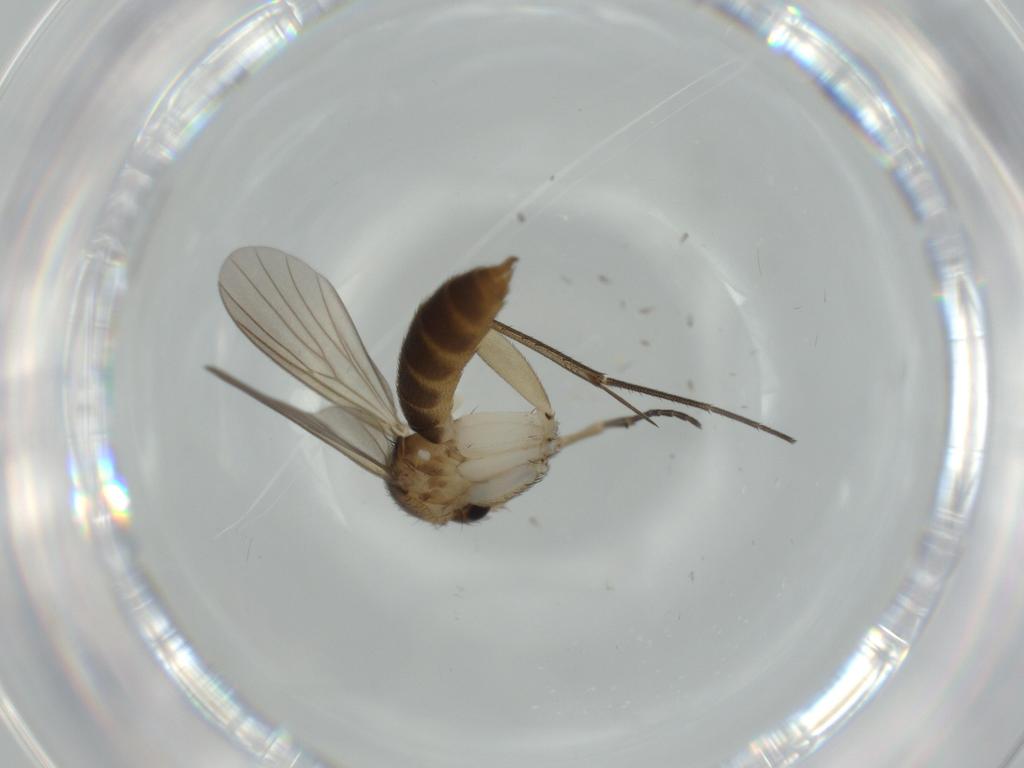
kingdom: Animalia
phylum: Arthropoda
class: Insecta
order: Diptera
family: Mycetophilidae
